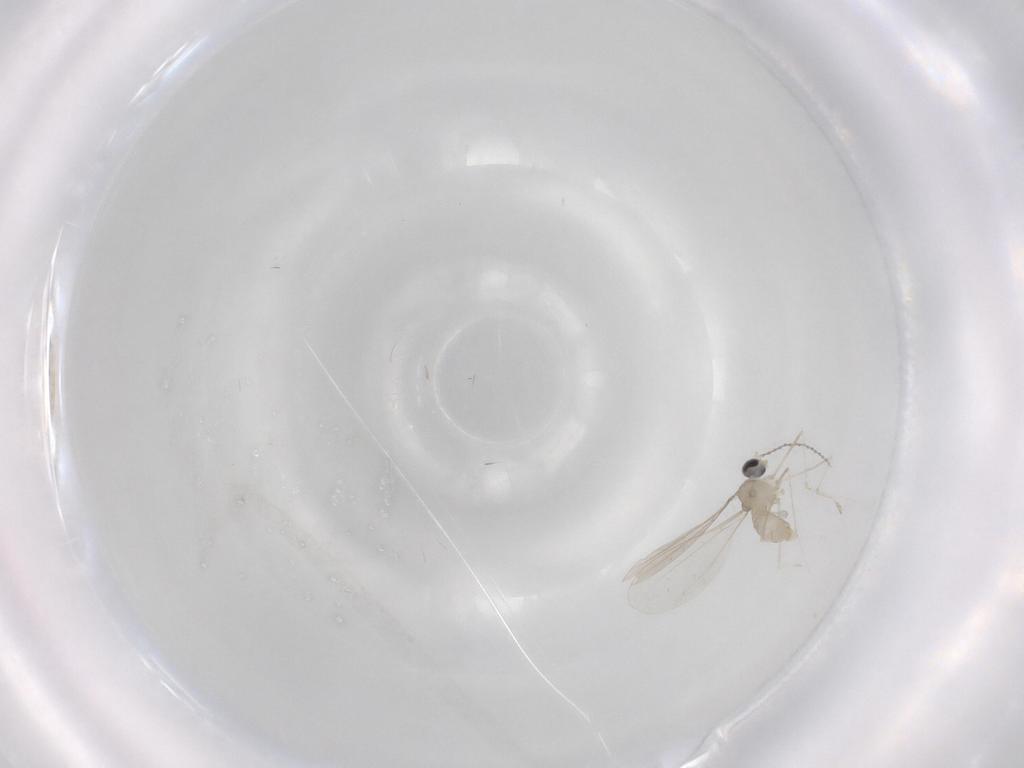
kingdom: Animalia
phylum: Arthropoda
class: Insecta
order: Diptera
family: Cecidomyiidae
